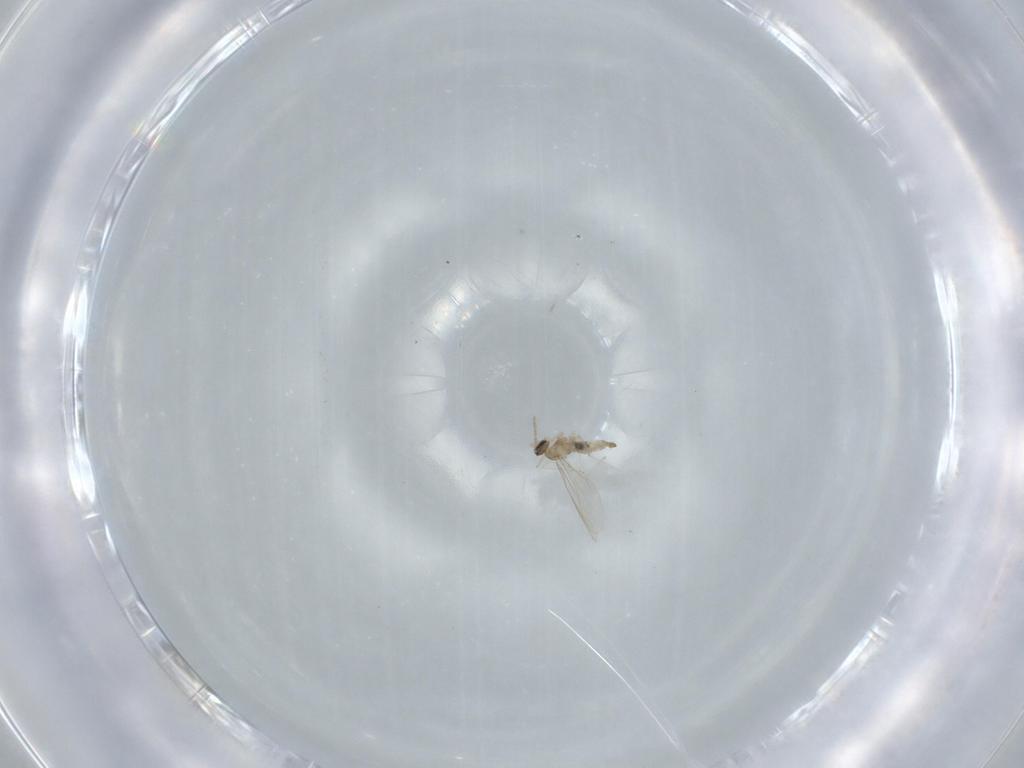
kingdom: Animalia
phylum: Arthropoda
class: Insecta
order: Diptera
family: Cecidomyiidae
